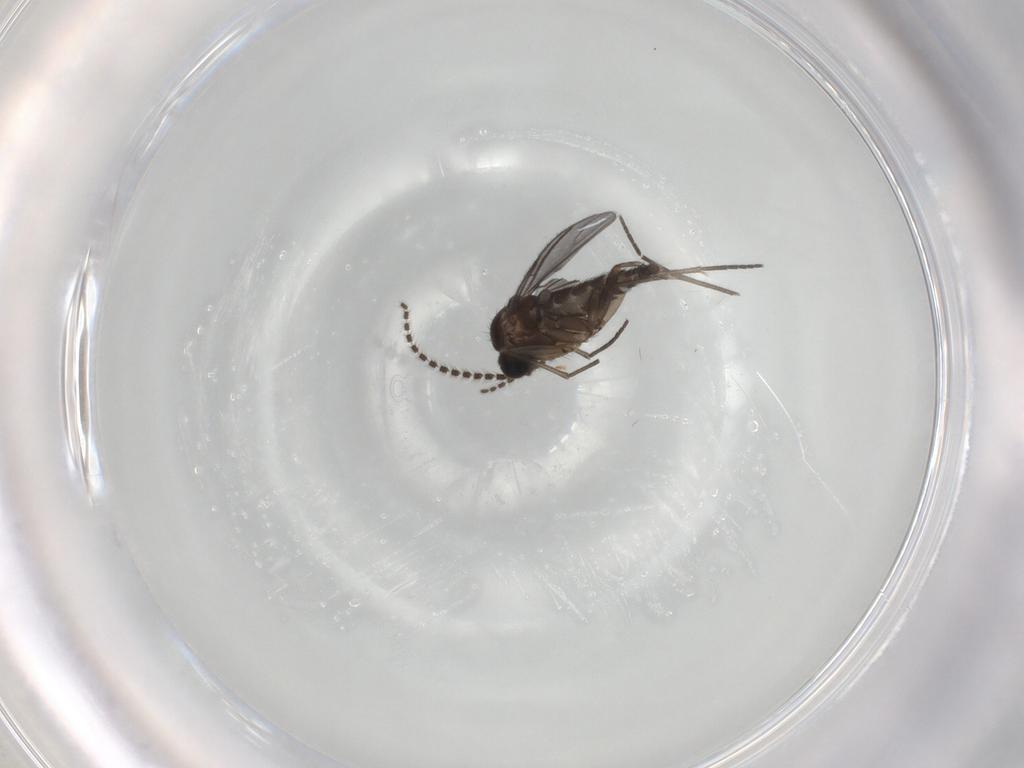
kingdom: Animalia
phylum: Arthropoda
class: Insecta
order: Diptera
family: Sciaridae
